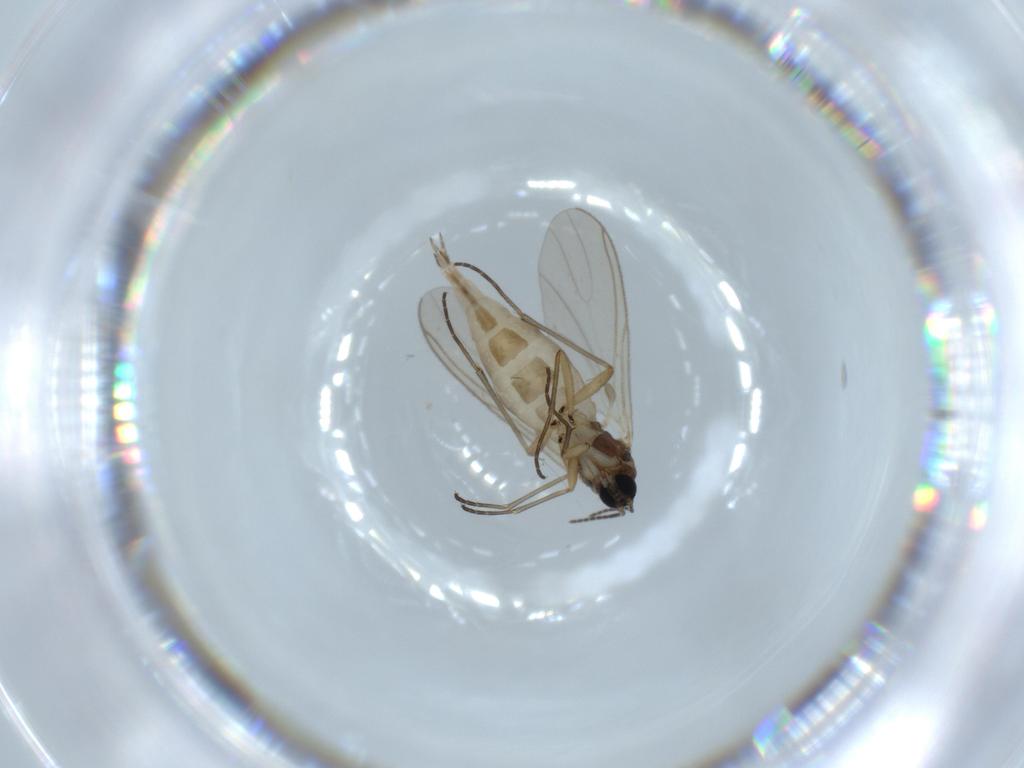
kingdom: Animalia
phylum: Arthropoda
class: Insecta
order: Diptera
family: Sciaridae
